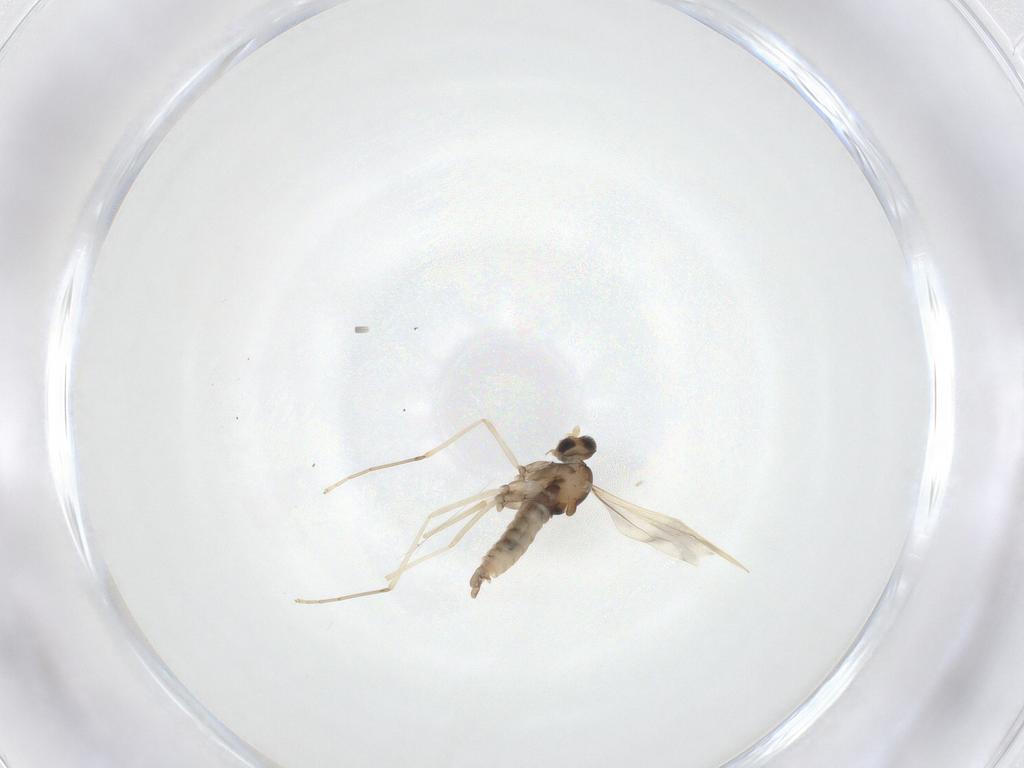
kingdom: Animalia
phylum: Arthropoda
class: Insecta
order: Diptera
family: Cecidomyiidae
